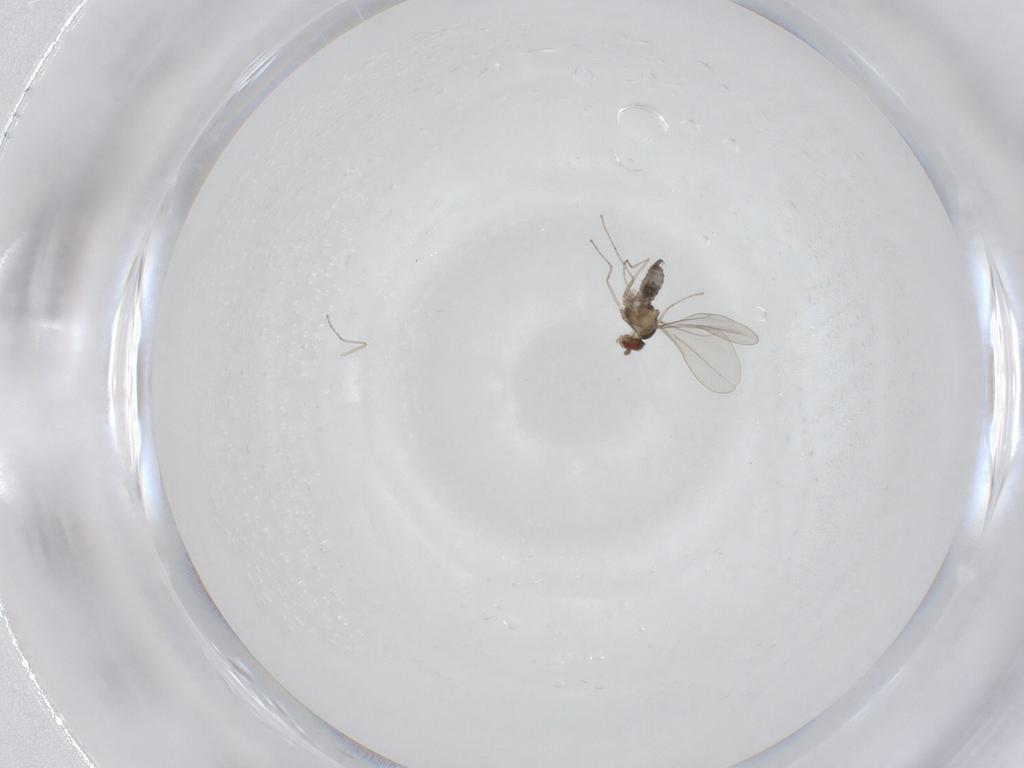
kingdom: Animalia
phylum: Arthropoda
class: Insecta
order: Diptera
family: Cecidomyiidae
